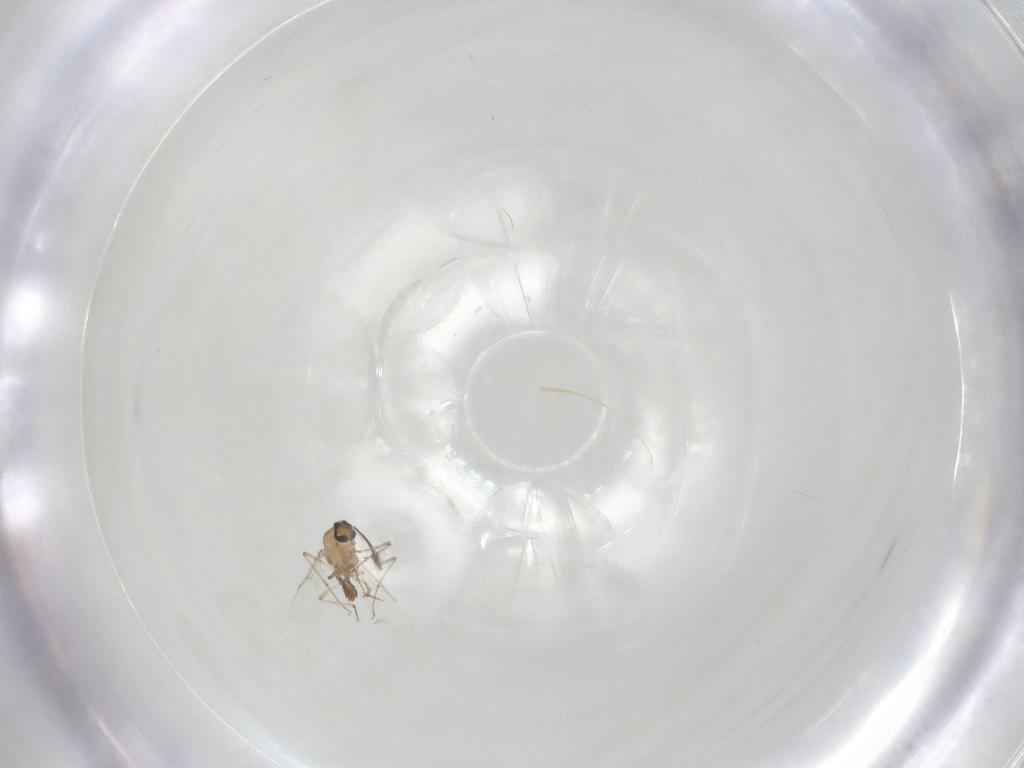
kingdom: Animalia
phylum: Arthropoda
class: Insecta
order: Diptera
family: Ceratopogonidae
